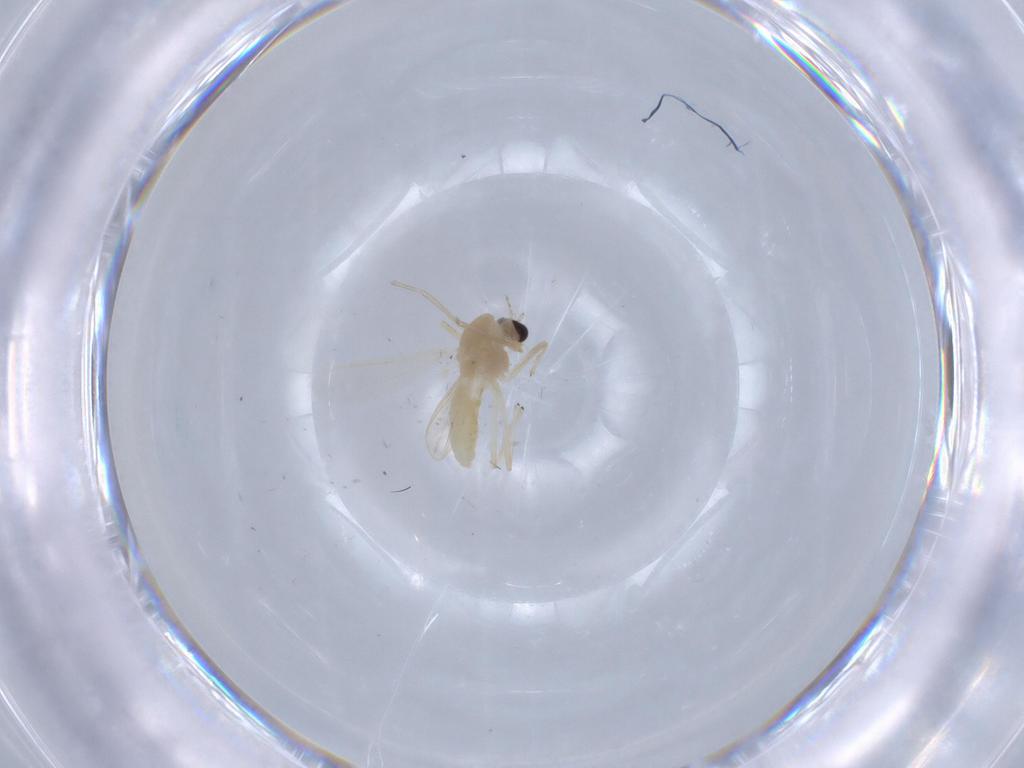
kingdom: Animalia
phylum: Arthropoda
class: Insecta
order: Diptera
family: Chironomidae
